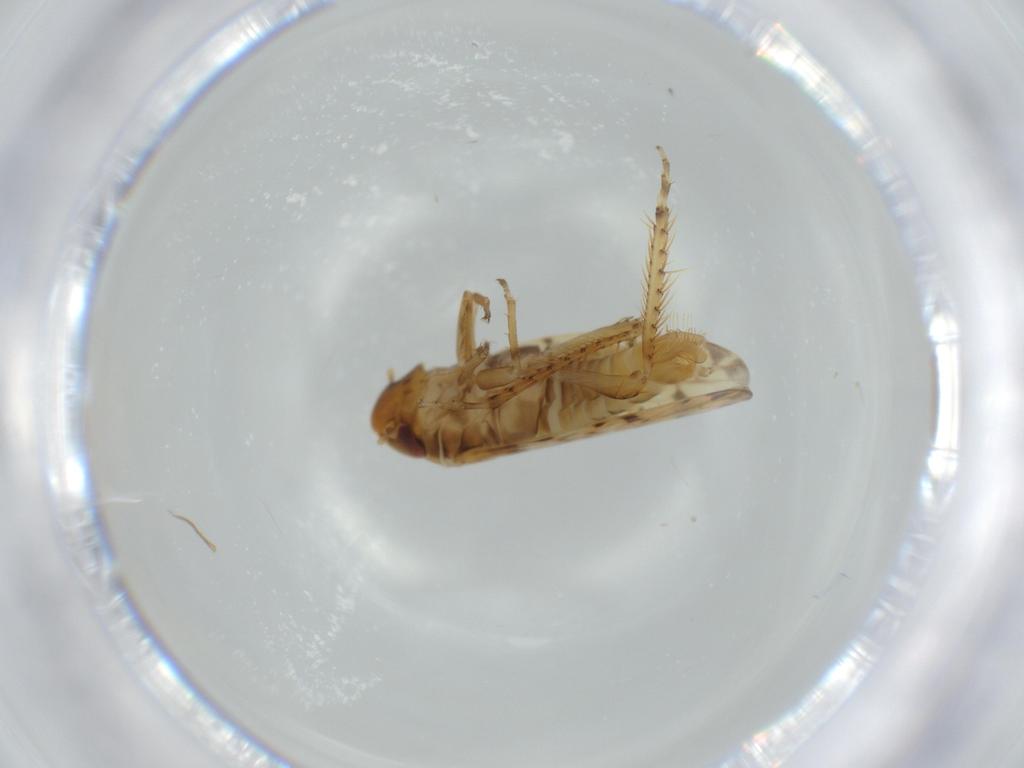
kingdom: Animalia
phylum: Arthropoda
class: Insecta
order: Hemiptera
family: Cicadellidae
